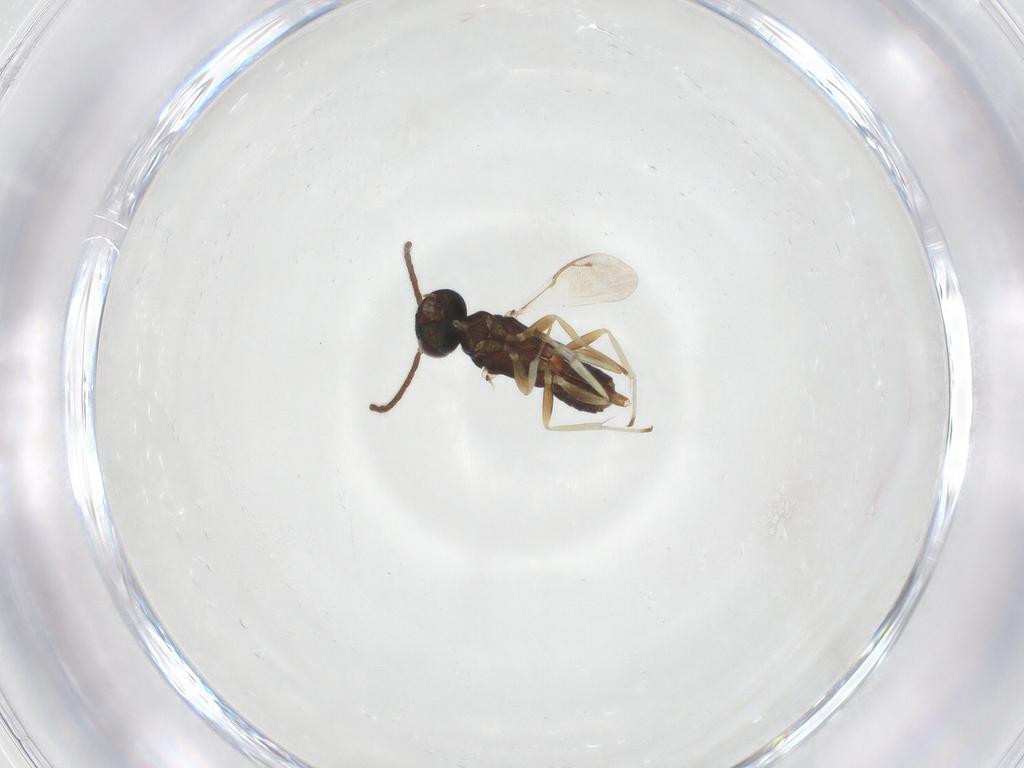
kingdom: Animalia
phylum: Arthropoda
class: Insecta
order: Hymenoptera
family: Eupelmidae
